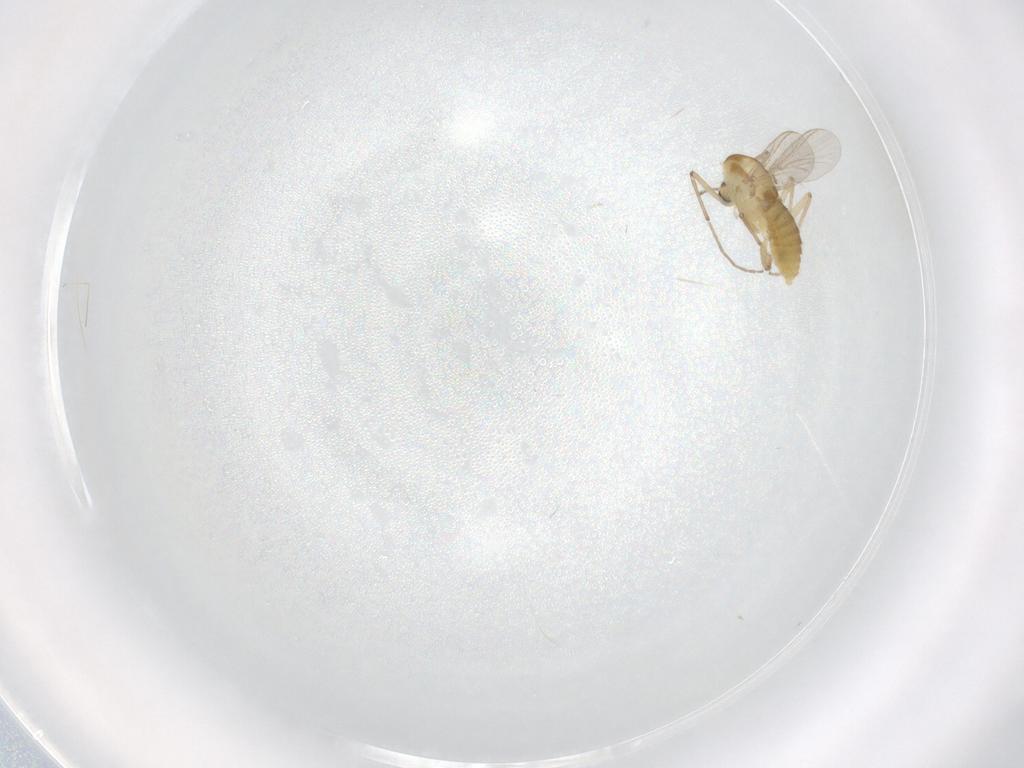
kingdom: Animalia
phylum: Arthropoda
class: Insecta
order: Diptera
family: Chironomidae
